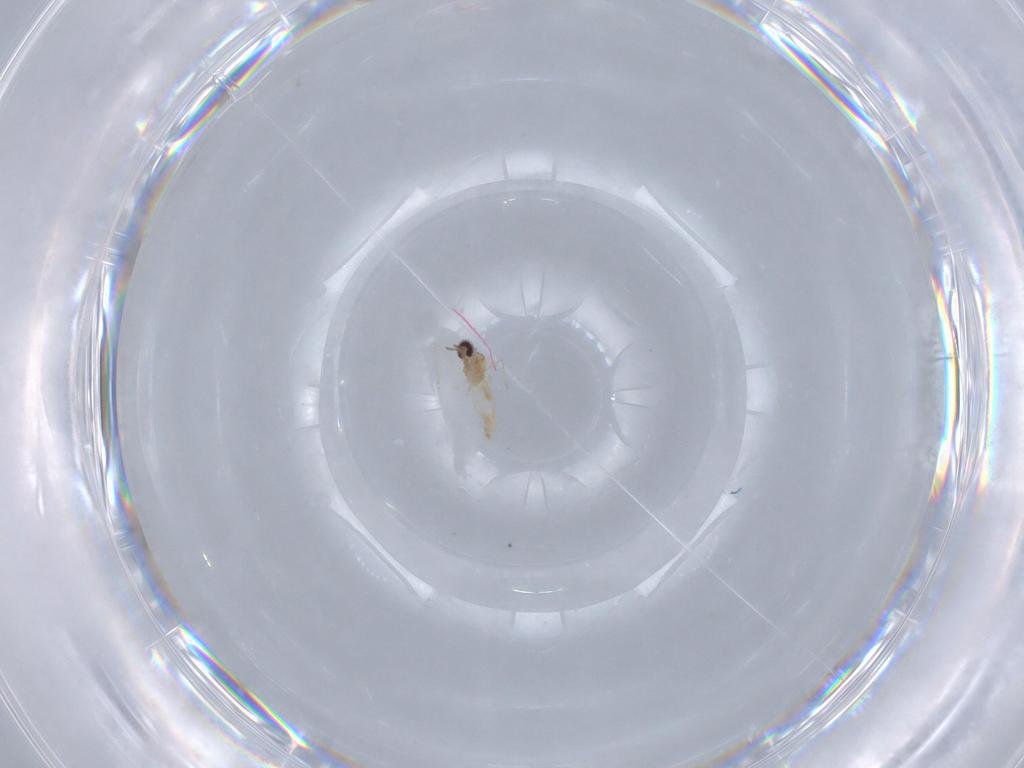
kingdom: Animalia
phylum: Arthropoda
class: Insecta
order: Diptera
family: Ceratopogonidae
